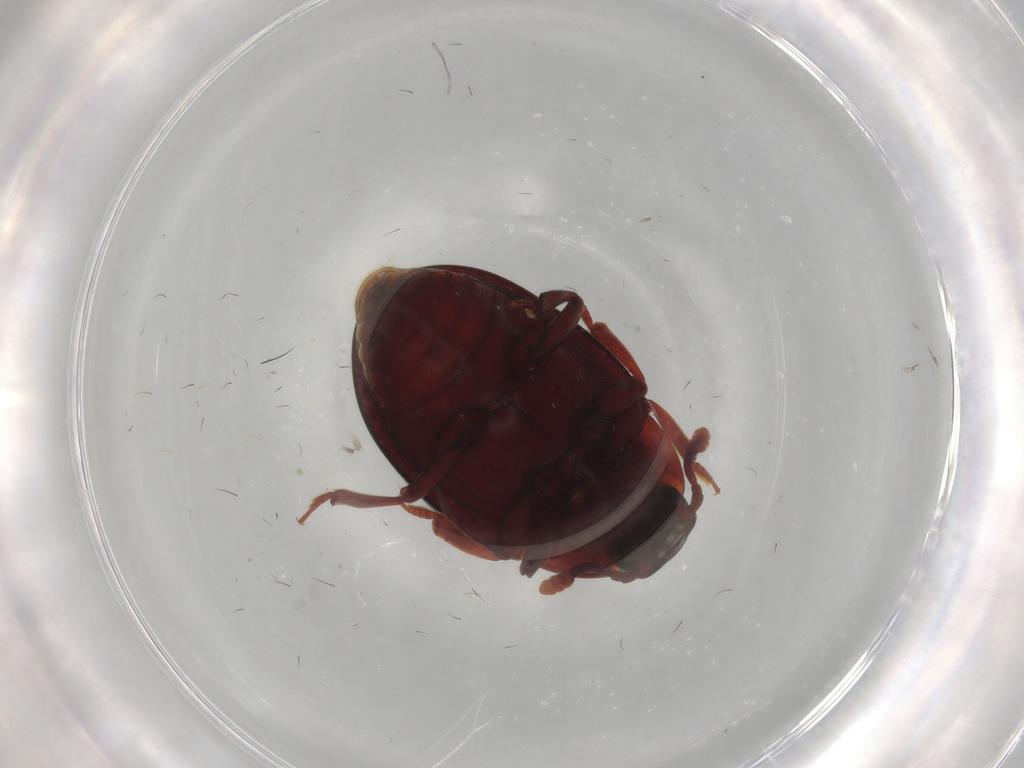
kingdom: Animalia
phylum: Arthropoda
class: Insecta
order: Coleoptera
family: Zopheridae
